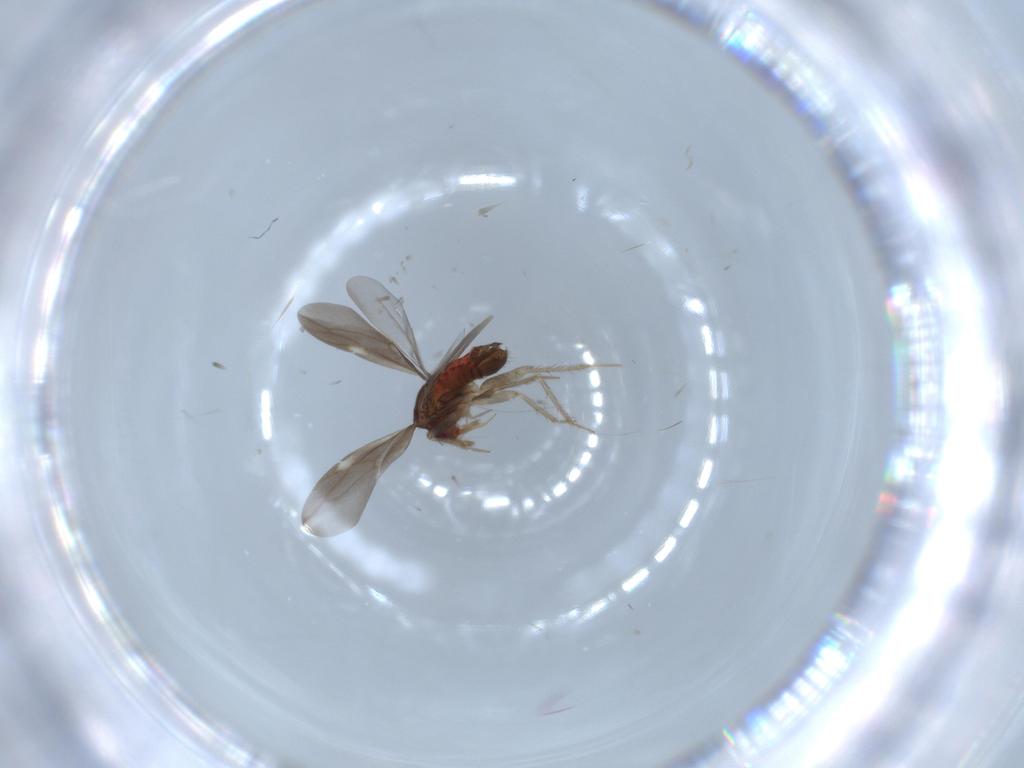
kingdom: Animalia
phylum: Arthropoda
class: Insecta
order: Hemiptera
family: Ceratocombidae
